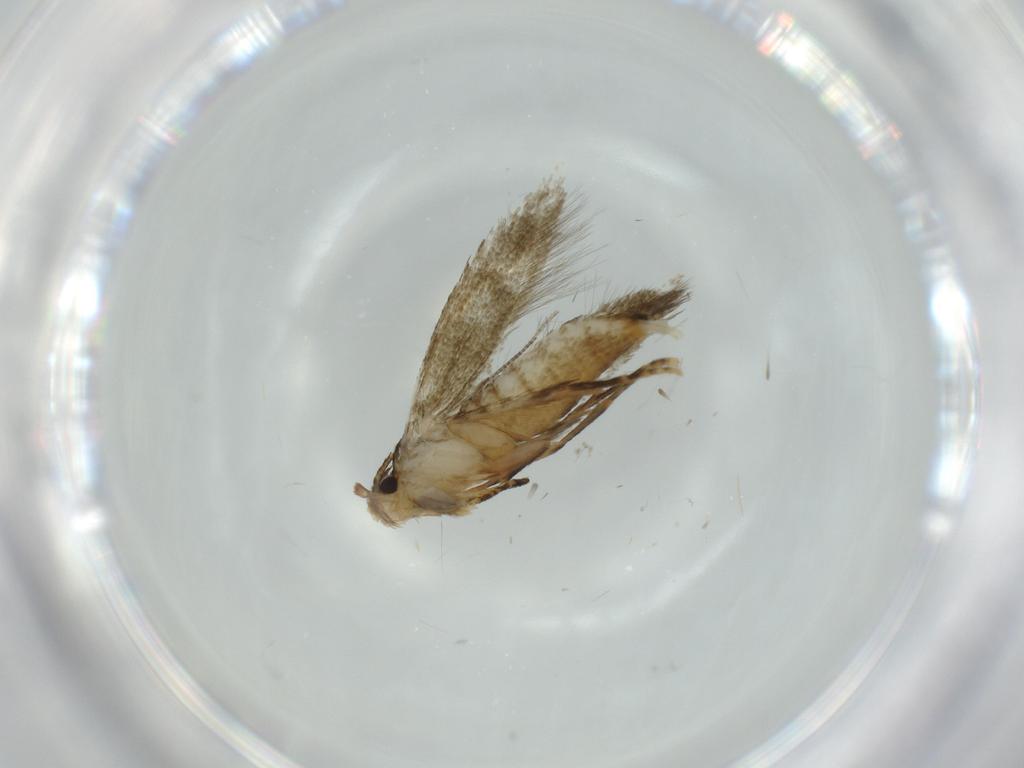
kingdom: Animalia
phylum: Arthropoda
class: Insecta
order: Lepidoptera
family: Tineidae
